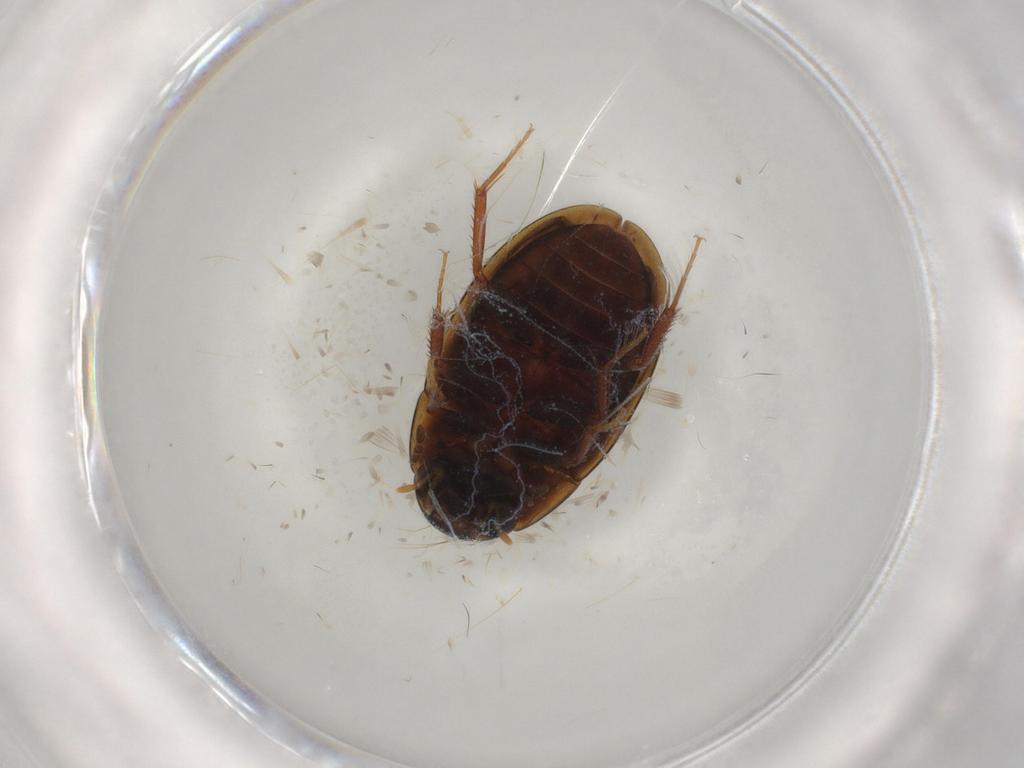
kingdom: Animalia
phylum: Arthropoda
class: Insecta
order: Coleoptera
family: Hydrophilidae
